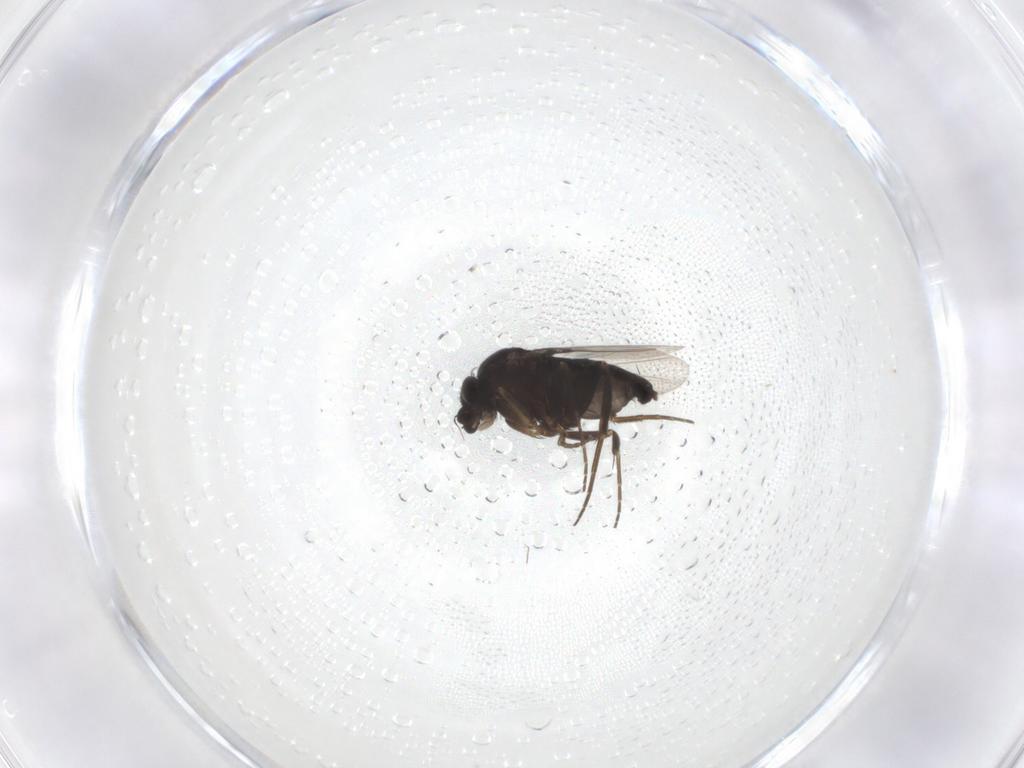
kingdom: Animalia
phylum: Arthropoda
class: Insecta
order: Diptera
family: Phoridae
